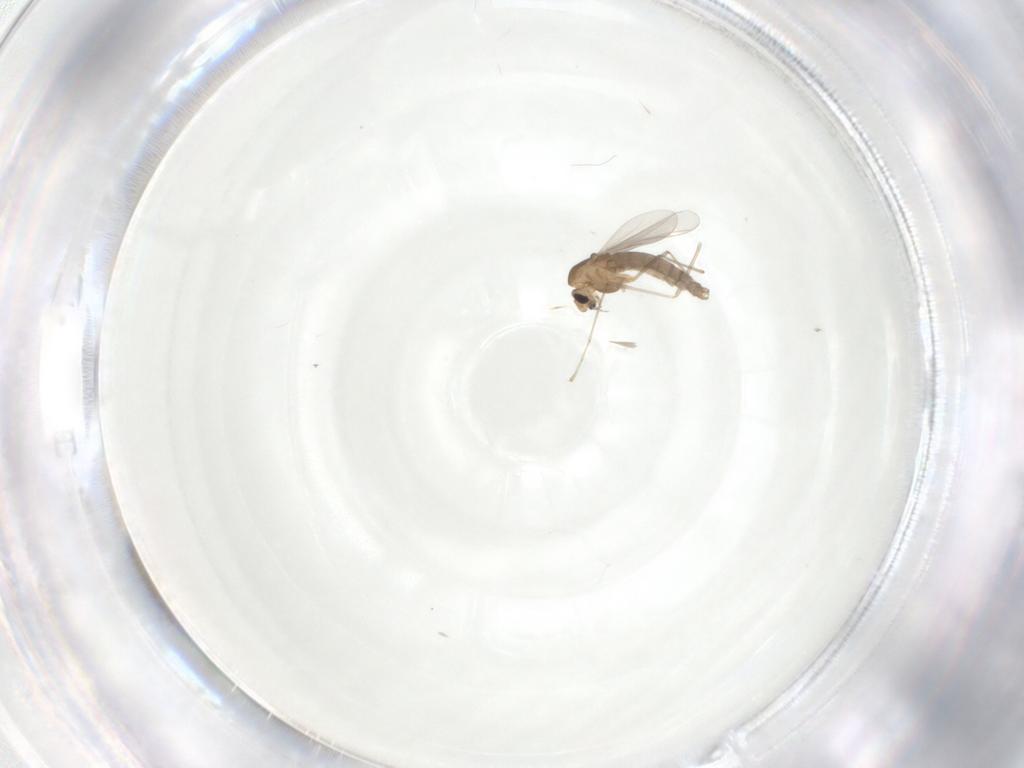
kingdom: Animalia
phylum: Arthropoda
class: Insecta
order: Diptera
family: Chironomidae
